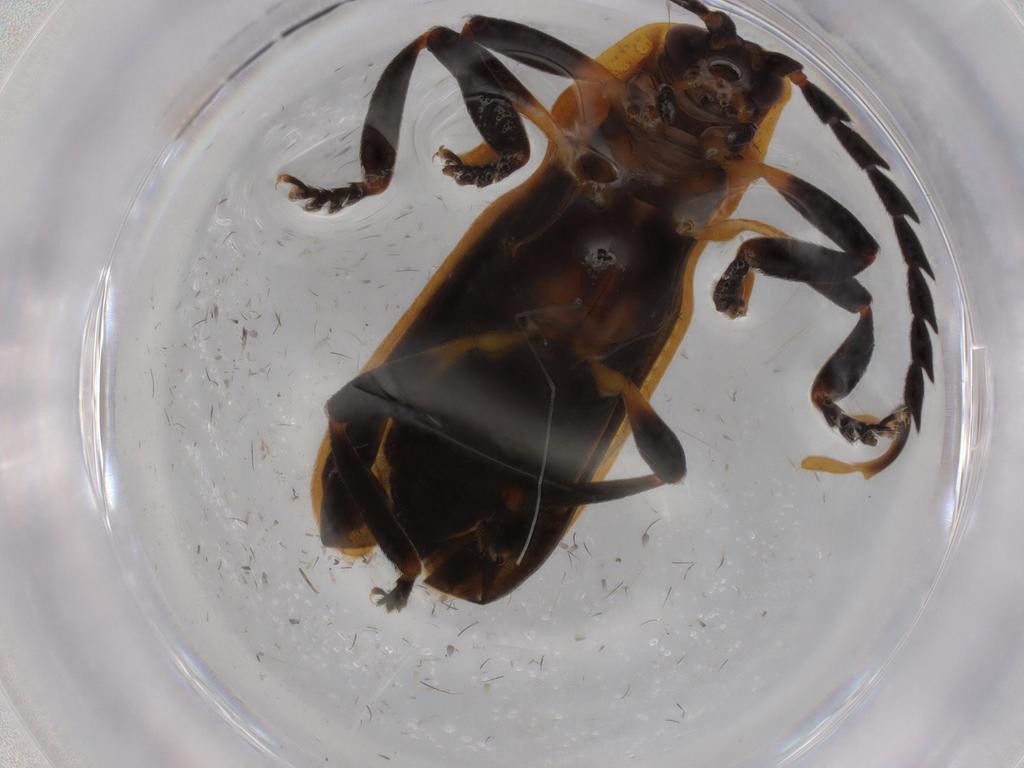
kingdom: Animalia
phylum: Arthropoda
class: Insecta
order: Coleoptera
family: Lycidae
